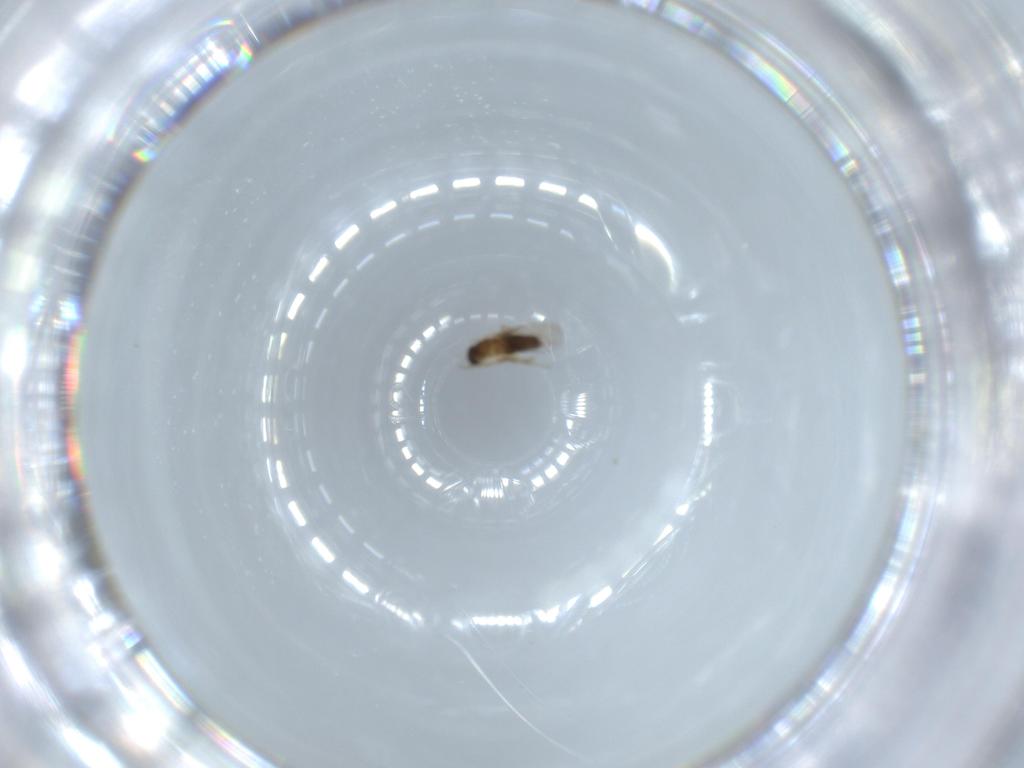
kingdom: Animalia
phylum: Arthropoda
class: Insecta
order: Diptera
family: Phoridae
